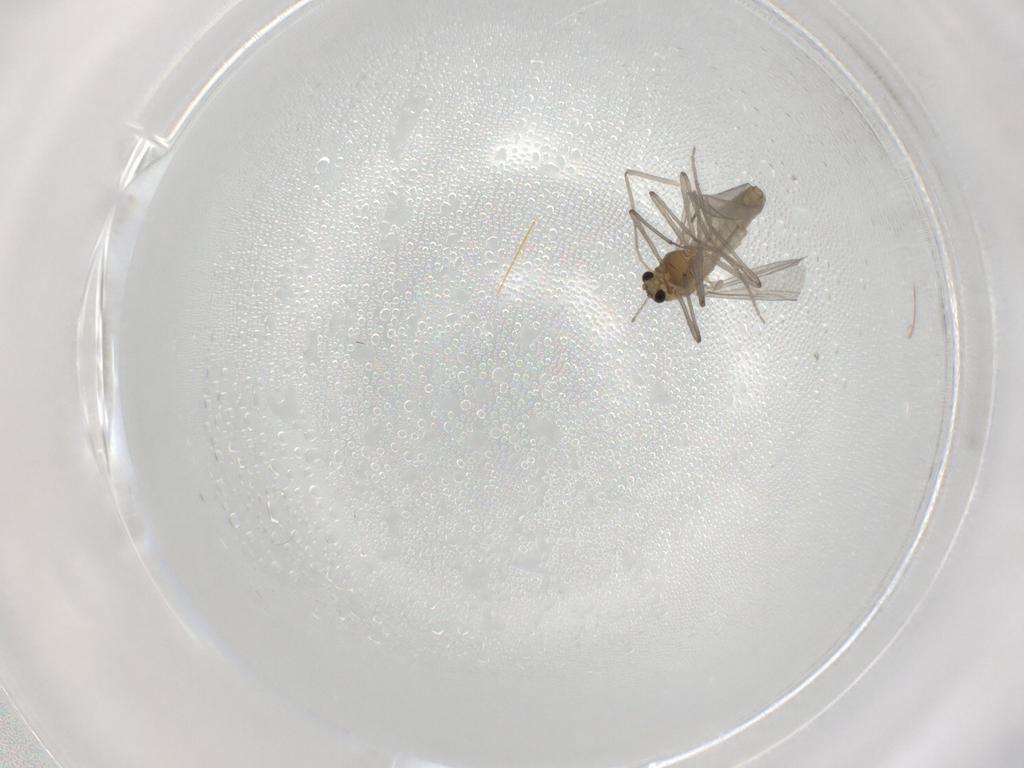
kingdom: Animalia
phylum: Arthropoda
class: Insecta
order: Diptera
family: Chironomidae
